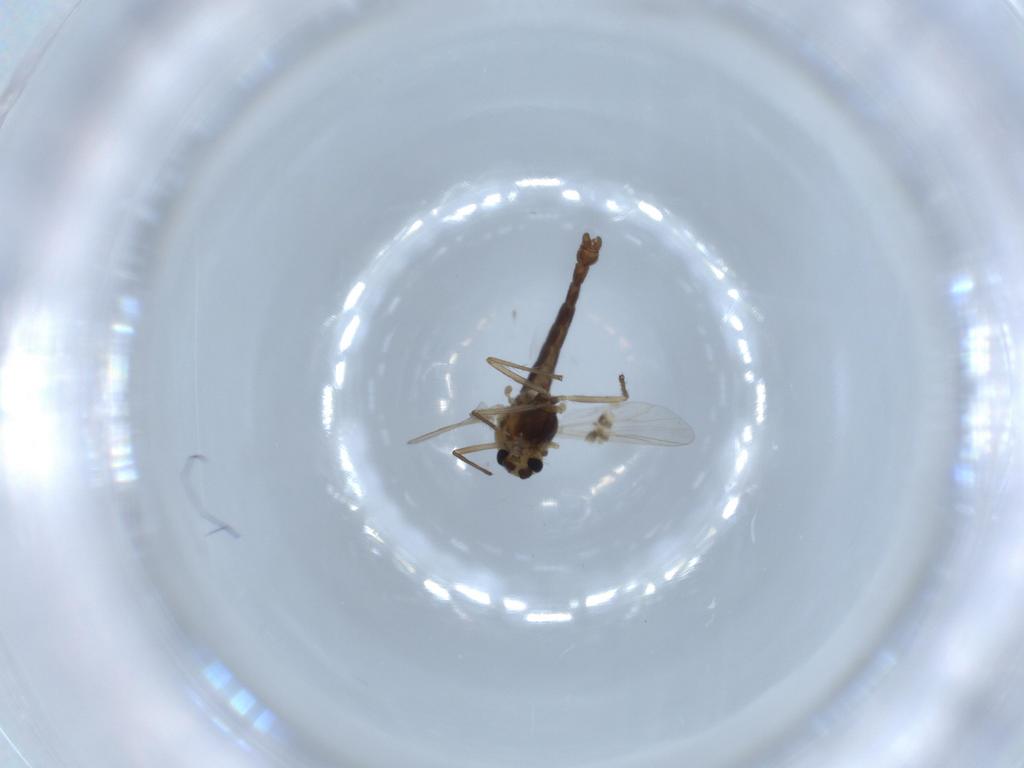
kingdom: Animalia
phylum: Arthropoda
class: Insecta
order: Diptera
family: Chironomidae
